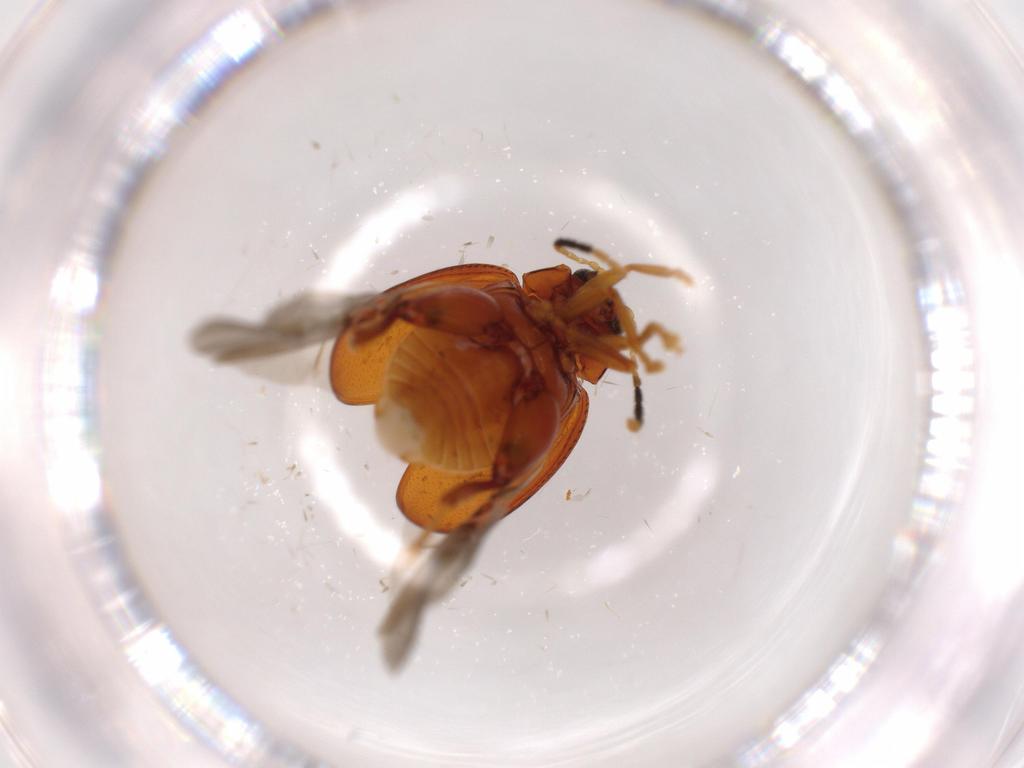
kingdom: Animalia
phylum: Arthropoda
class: Insecta
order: Coleoptera
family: Chrysomelidae
